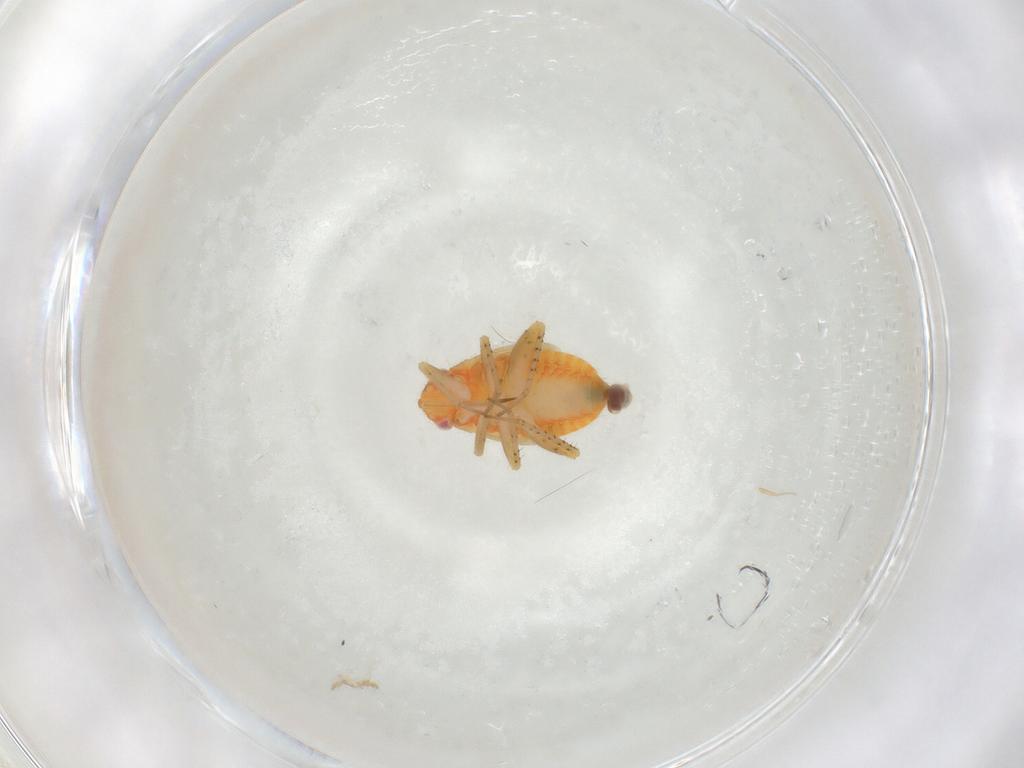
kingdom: Animalia
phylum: Arthropoda
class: Insecta
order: Hemiptera
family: Miridae
